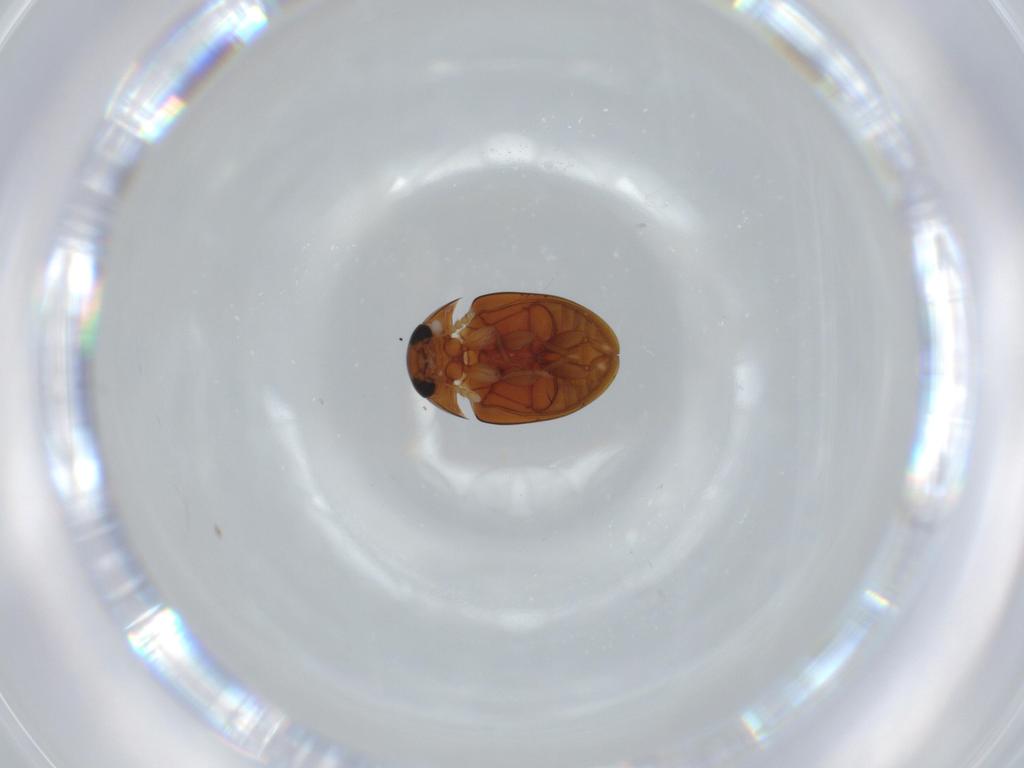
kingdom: Animalia
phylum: Arthropoda
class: Insecta
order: Coleoptera
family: Phalacridae
